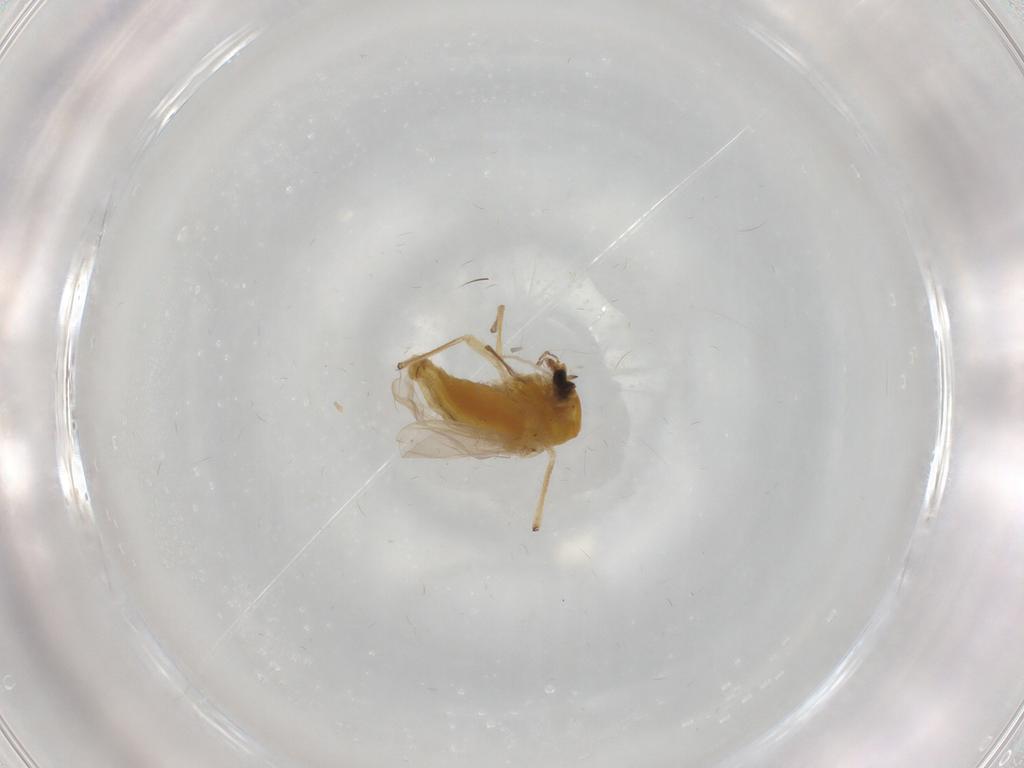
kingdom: Animalia
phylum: Arthropoda
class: Insecta
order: Diptera
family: Chironomidae
